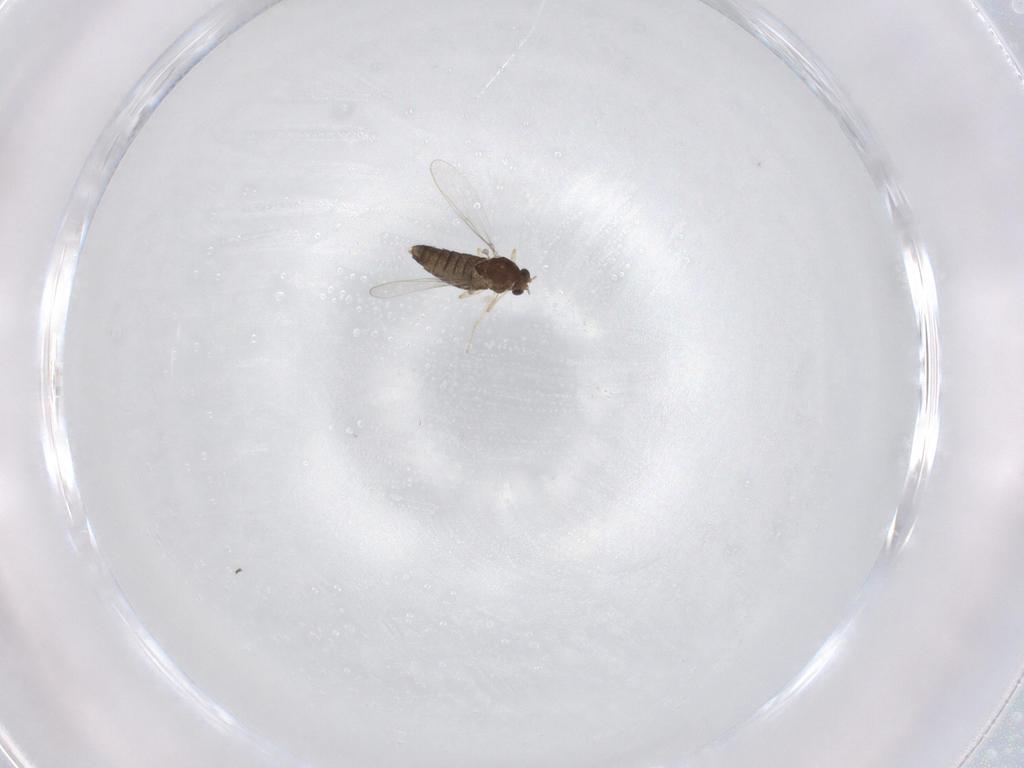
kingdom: Animalia
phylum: Arthropoda
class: Insecta
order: Diptera
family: Chironomidae
